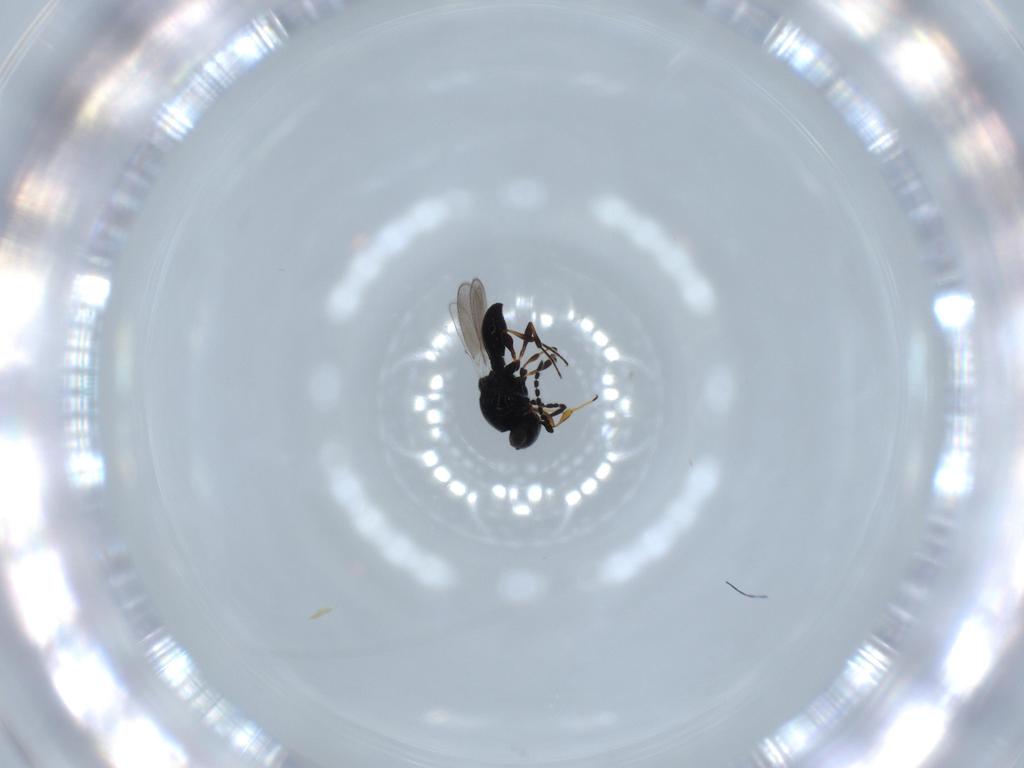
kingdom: Animalia
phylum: Arthropoda
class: Insecta
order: Hymenoptera
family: Platygastridae
